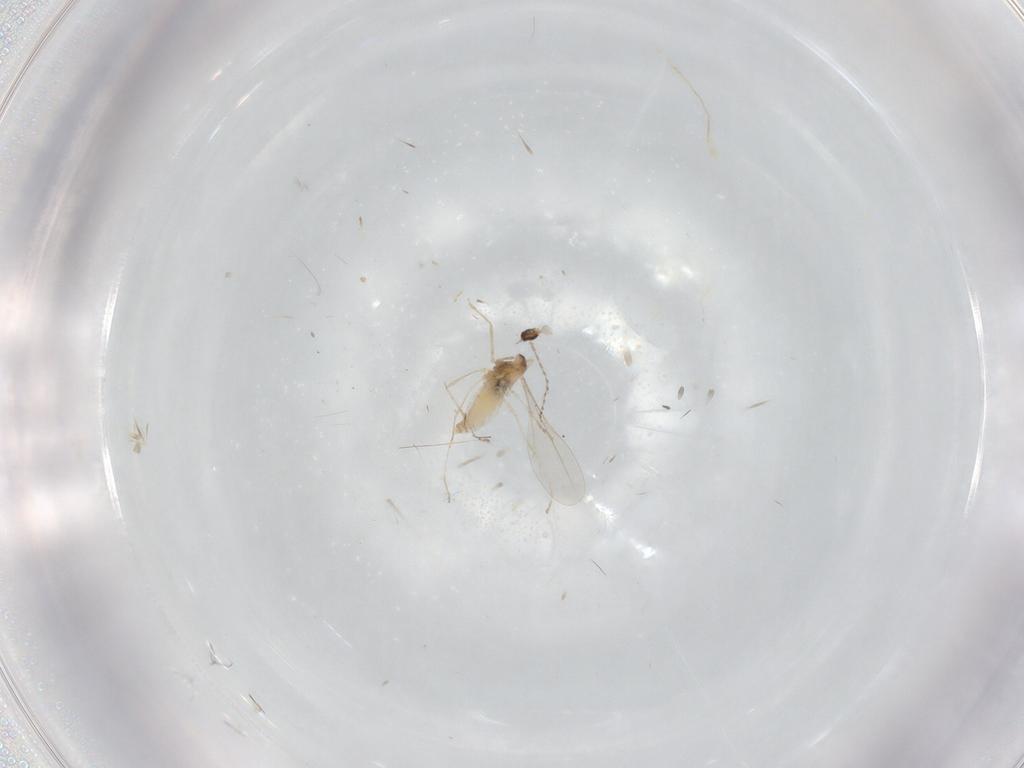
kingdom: Animalia
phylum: Arthropoda
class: Insecta
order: Diptera
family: Cecidomyiidae
